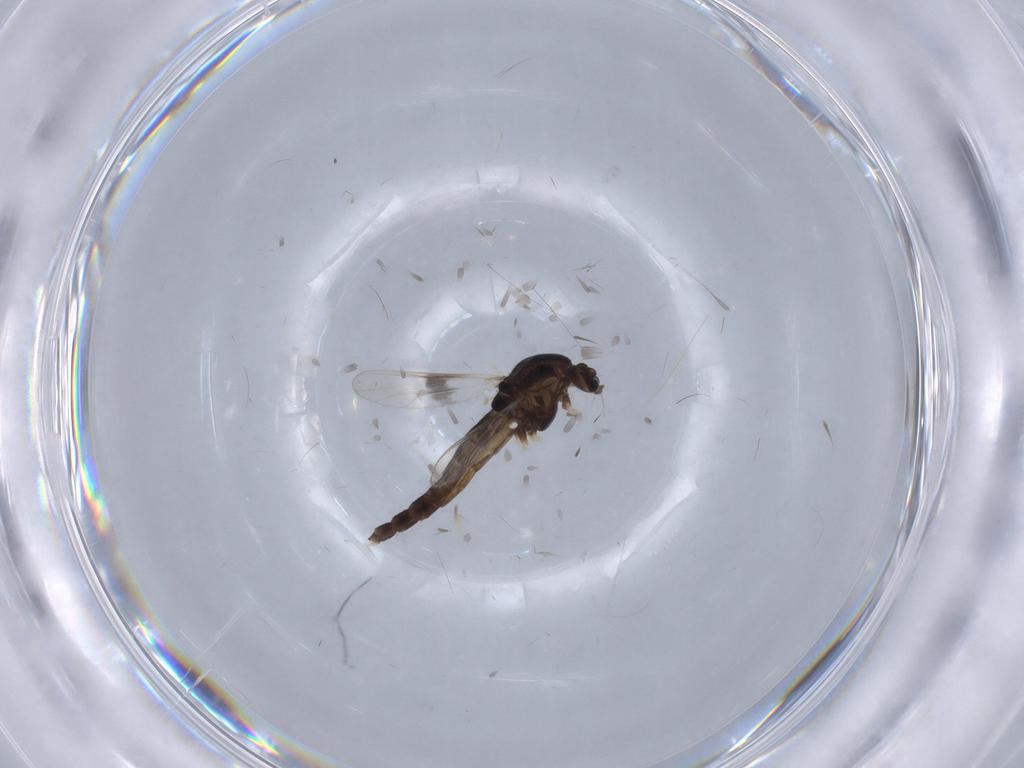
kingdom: Animalia
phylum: Arthropoda
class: Insecta
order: Diptera
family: Chironomidae
